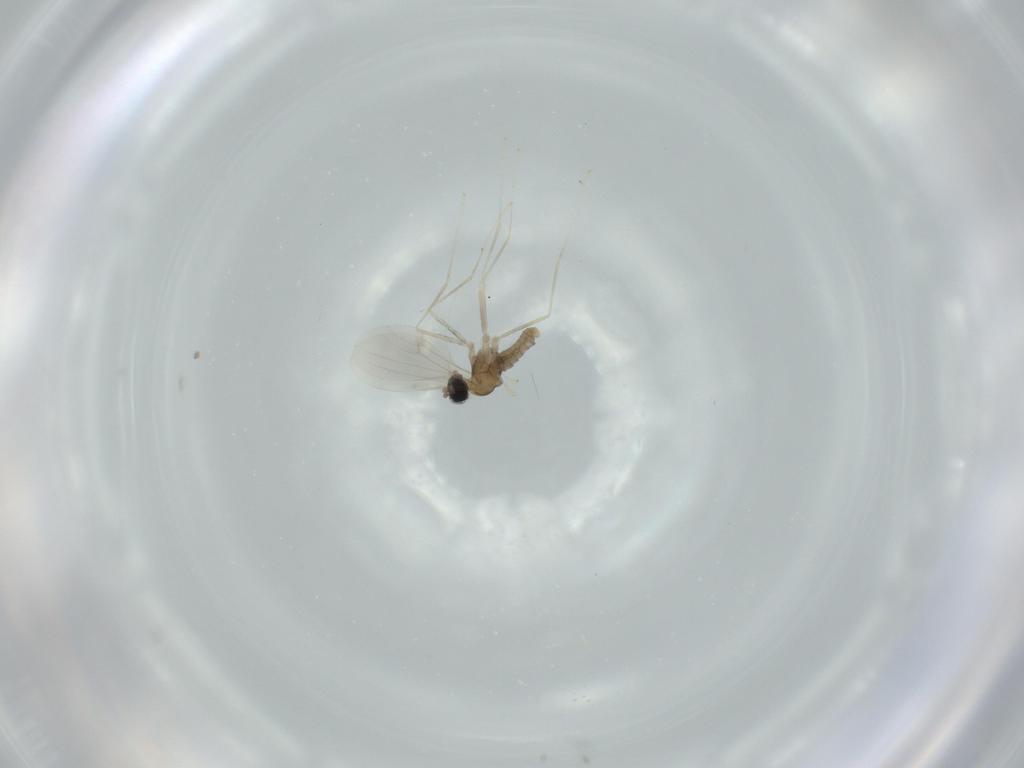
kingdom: Animalia
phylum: Arthropoda
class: Insecta
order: Diptera
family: Cecidomyiidae
